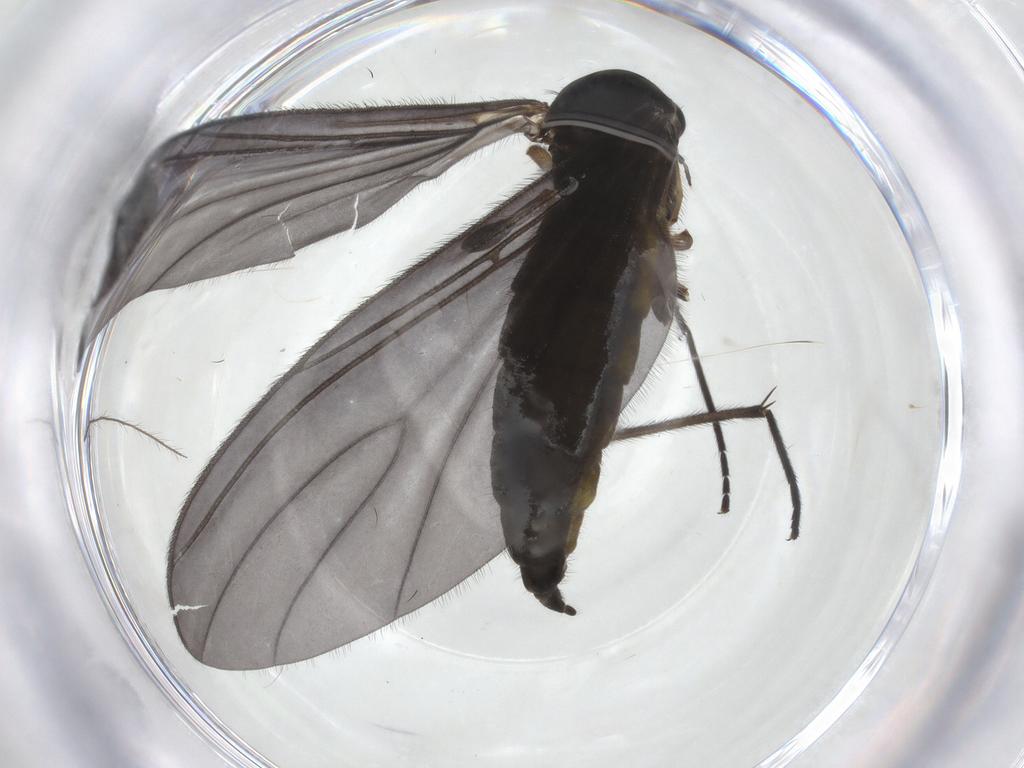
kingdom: Animalia
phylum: Arthropoda
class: Insecta
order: Diptera
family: Sciaridae
